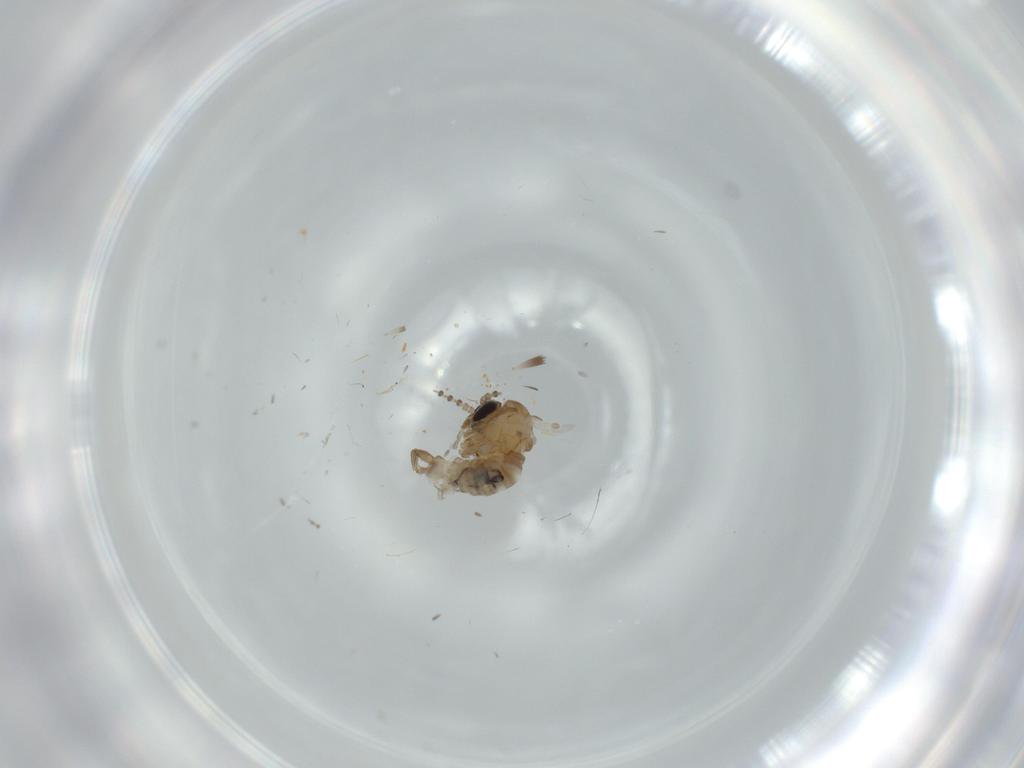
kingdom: Animalia
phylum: Arthropoda
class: Insecta
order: Diptera
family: Psychodidae
